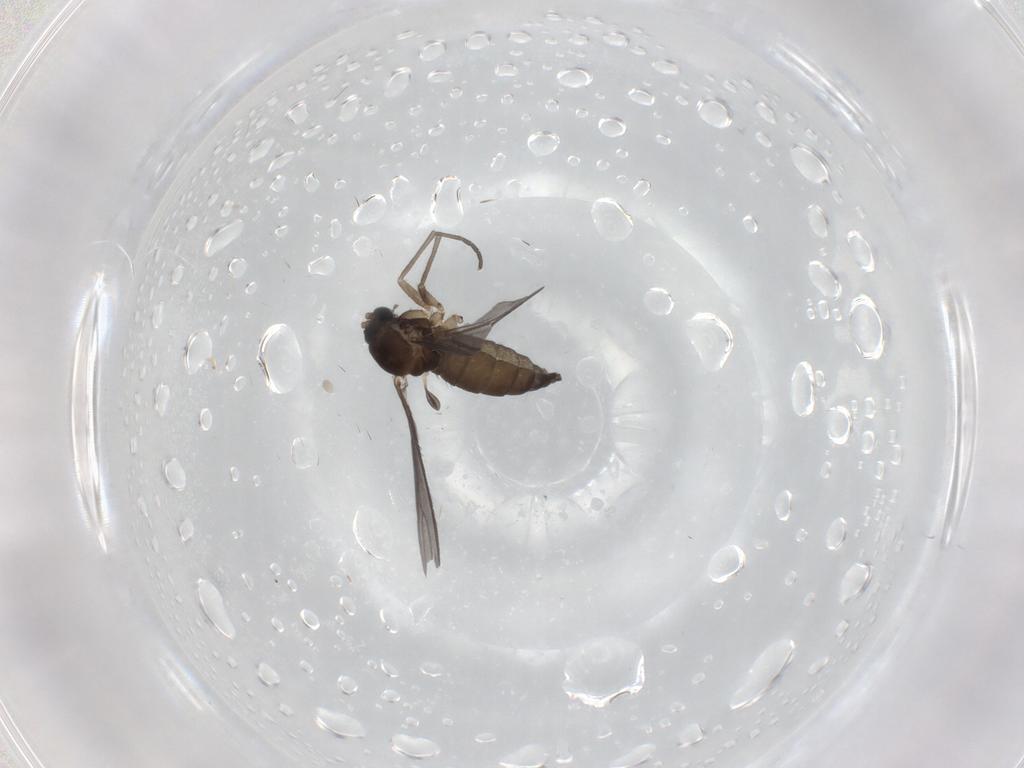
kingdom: Animalia
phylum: Arthropoda
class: Insecta
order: Diptera
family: Sciaridae
